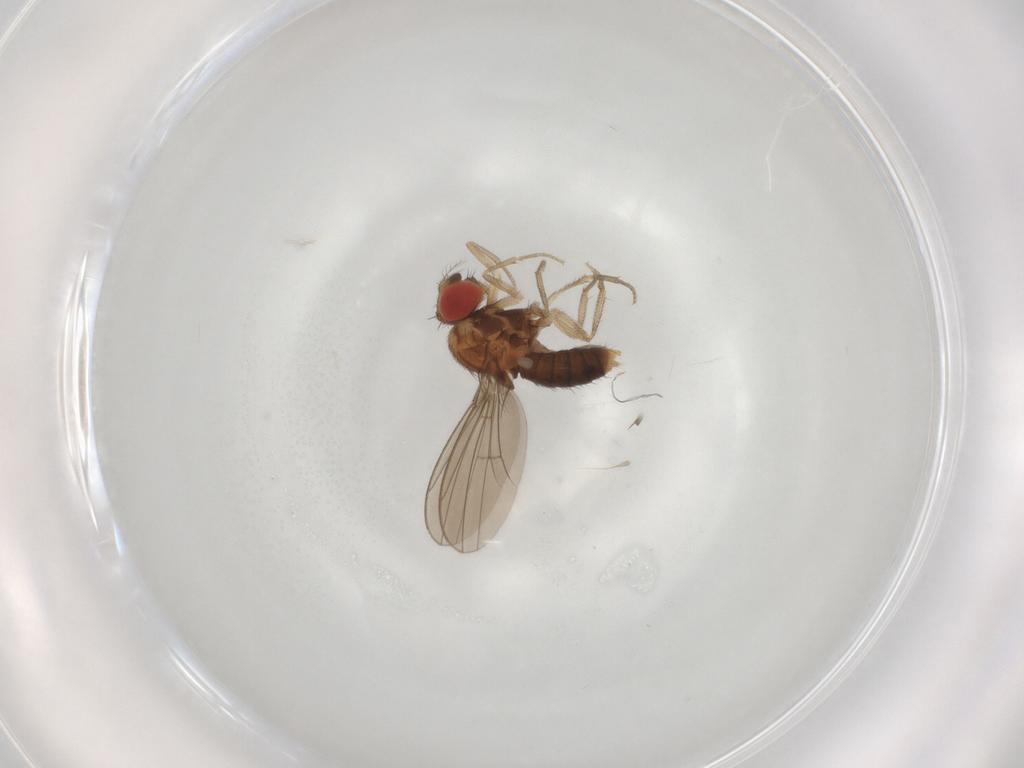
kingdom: Animalia
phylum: Arthropoda
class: Insecta
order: Diptera
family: Drosophilidae
